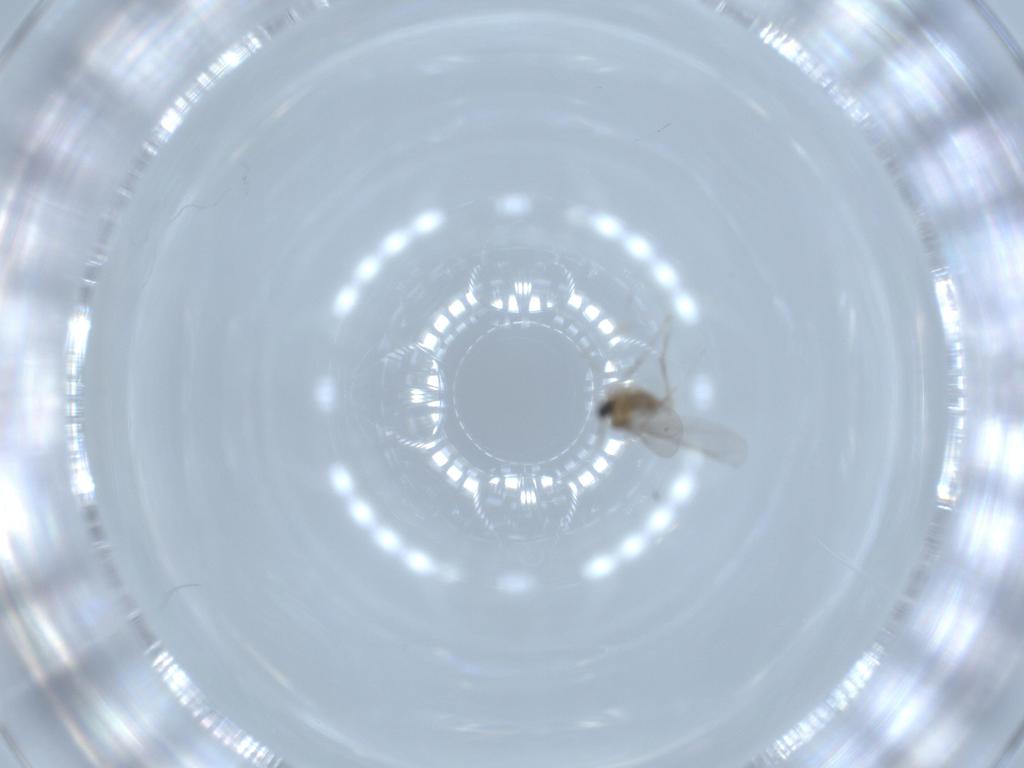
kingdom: Animalia
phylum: Arthropoda
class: Insecta
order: Diptera
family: Cecidomyiidae
